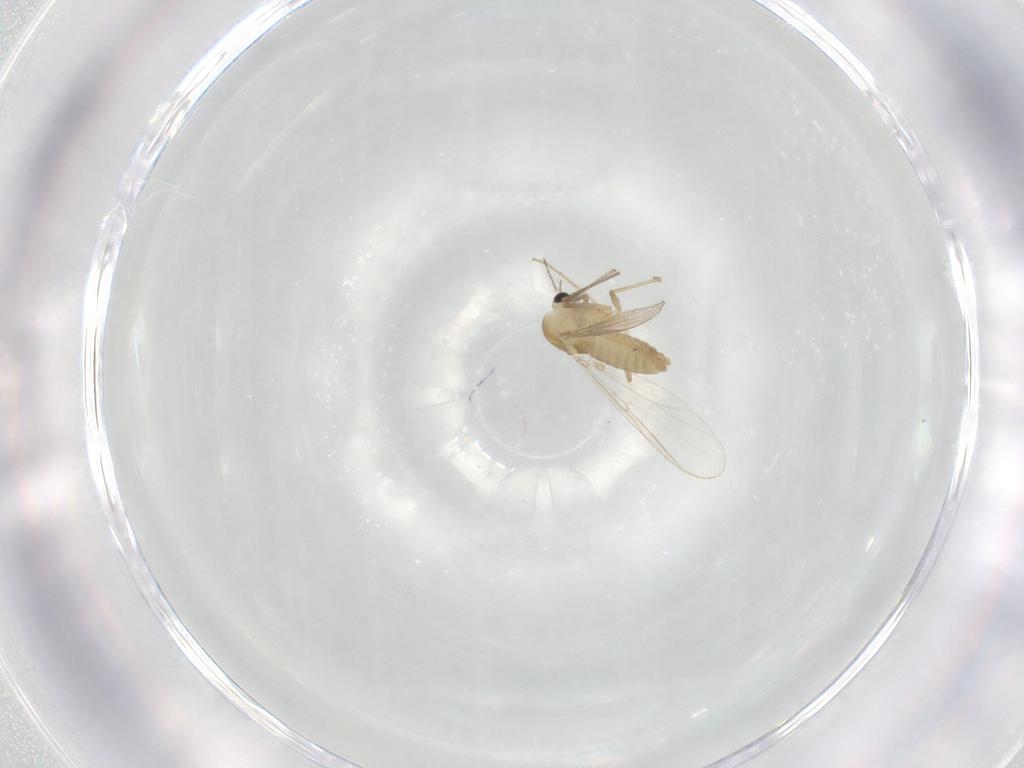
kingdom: Animalia
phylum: Arthropoda
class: Insecta
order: Diptera
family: Chironomidae
